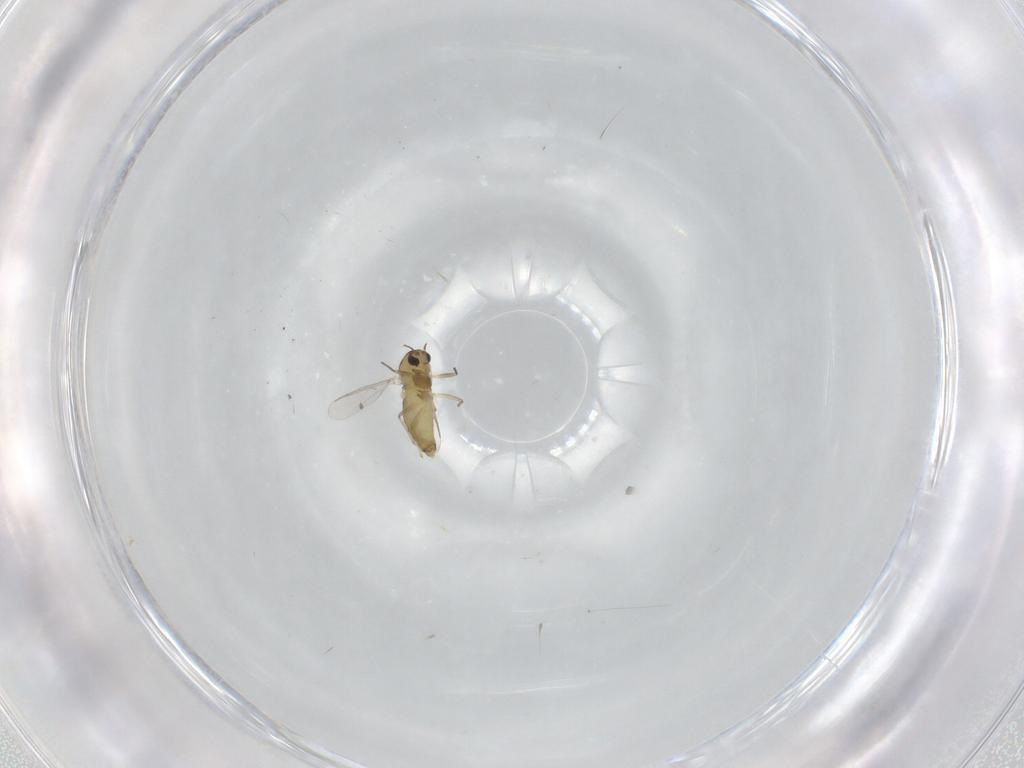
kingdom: Animalia
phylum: Arthropoda
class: Insecta
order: Diptera
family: Chironomidae
